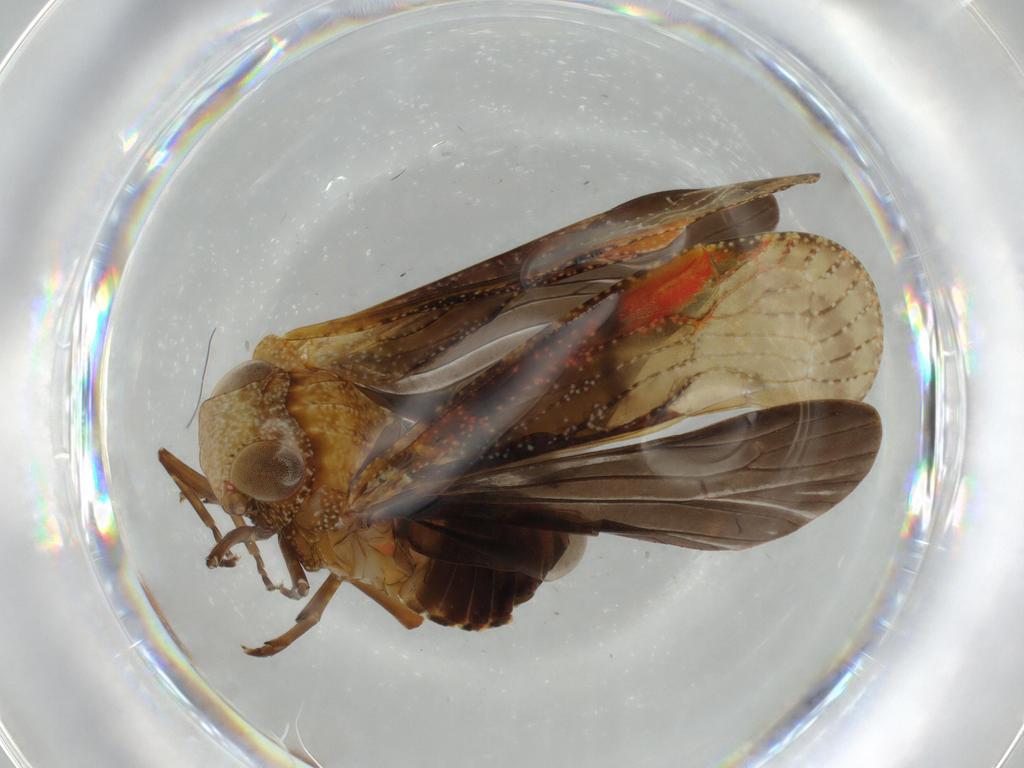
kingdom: Animalia
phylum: Arthropoda
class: Insecta
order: Hemiptera
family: Achilidae
